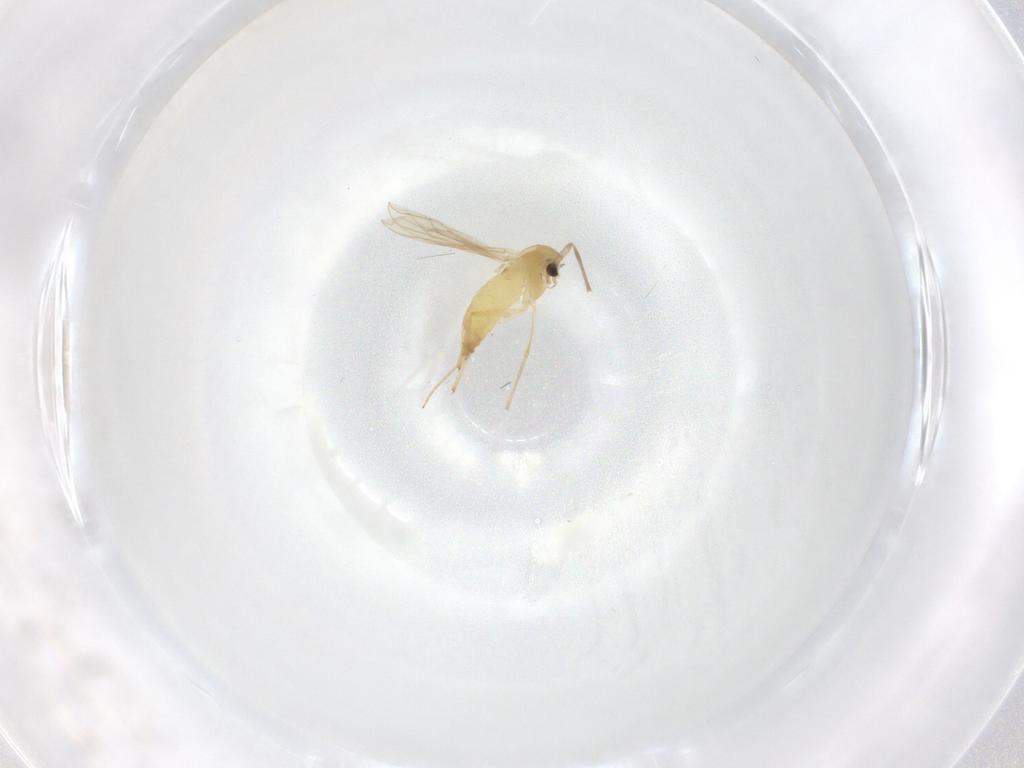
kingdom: Animalia
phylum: Arthropoda
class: Insecta
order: Diptera
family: Chironomidae
